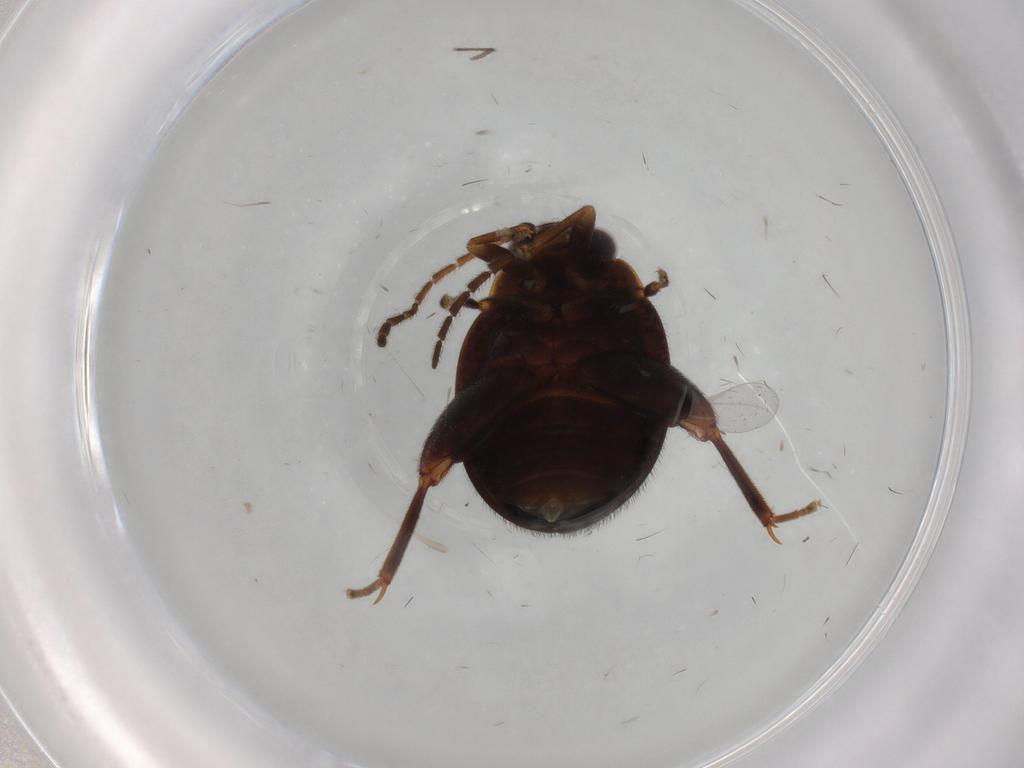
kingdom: Animalia
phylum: Arthropoda
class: Insecta
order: Coleoptera
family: Scirtidae
